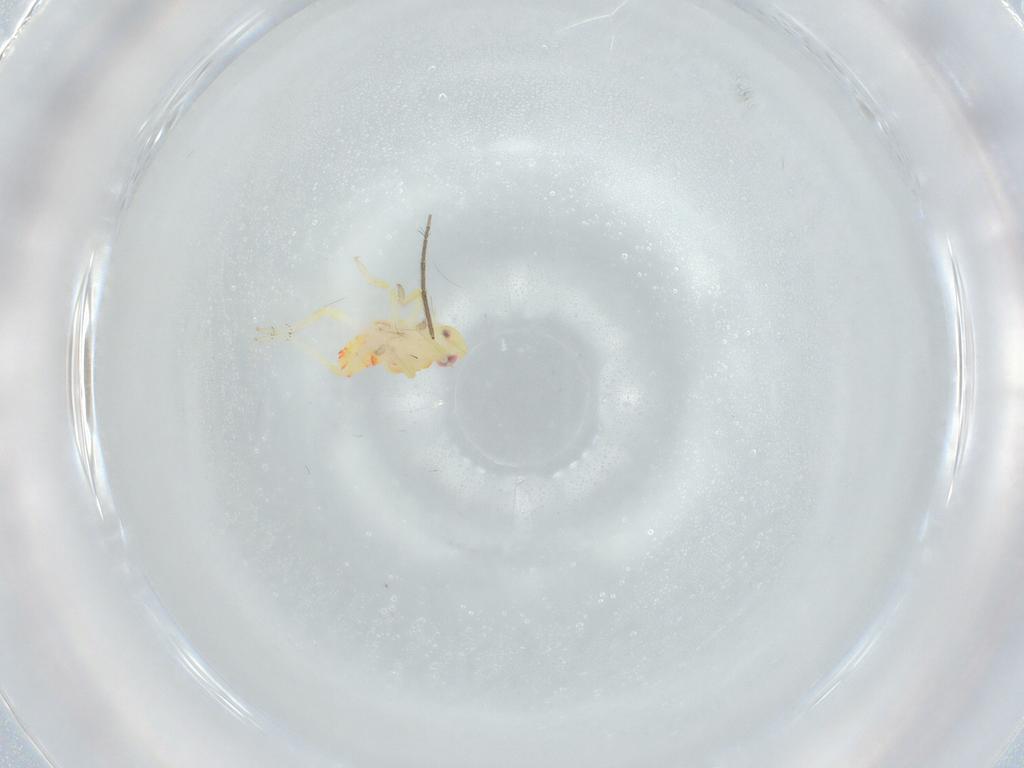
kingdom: Animalia
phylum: Arthropoda
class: Insecta
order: Hemiptera
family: Tropiduchidae
